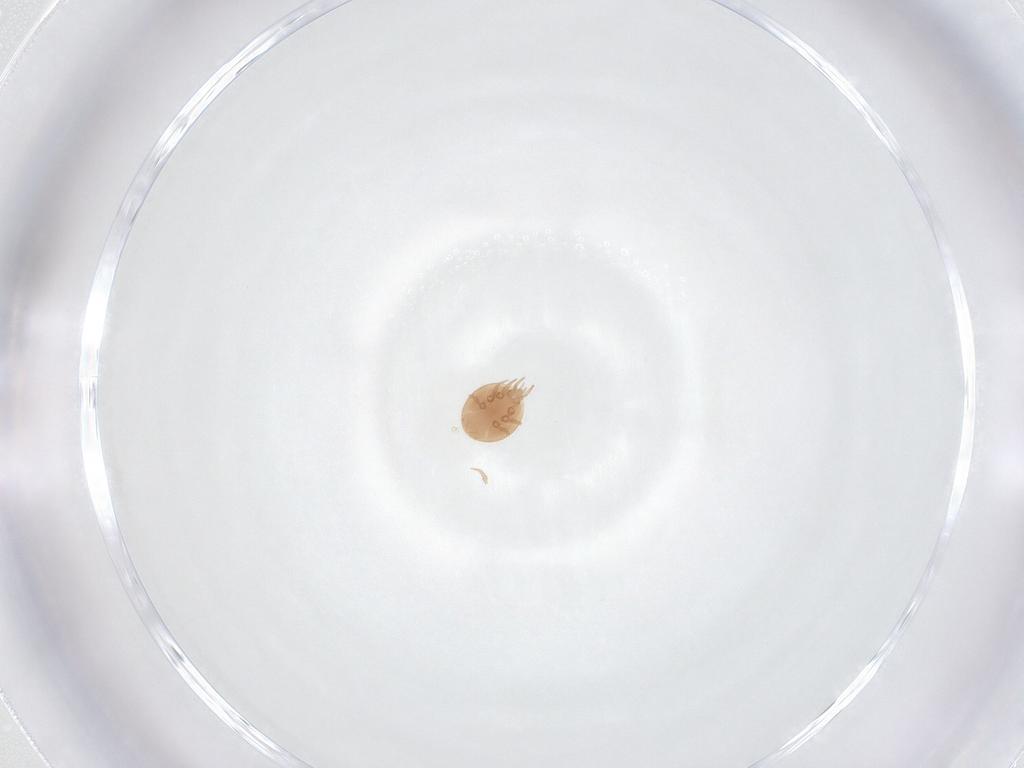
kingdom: Animalia
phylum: Arthropoda
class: Arachnida
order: Mesostigmata
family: Trematuridae
